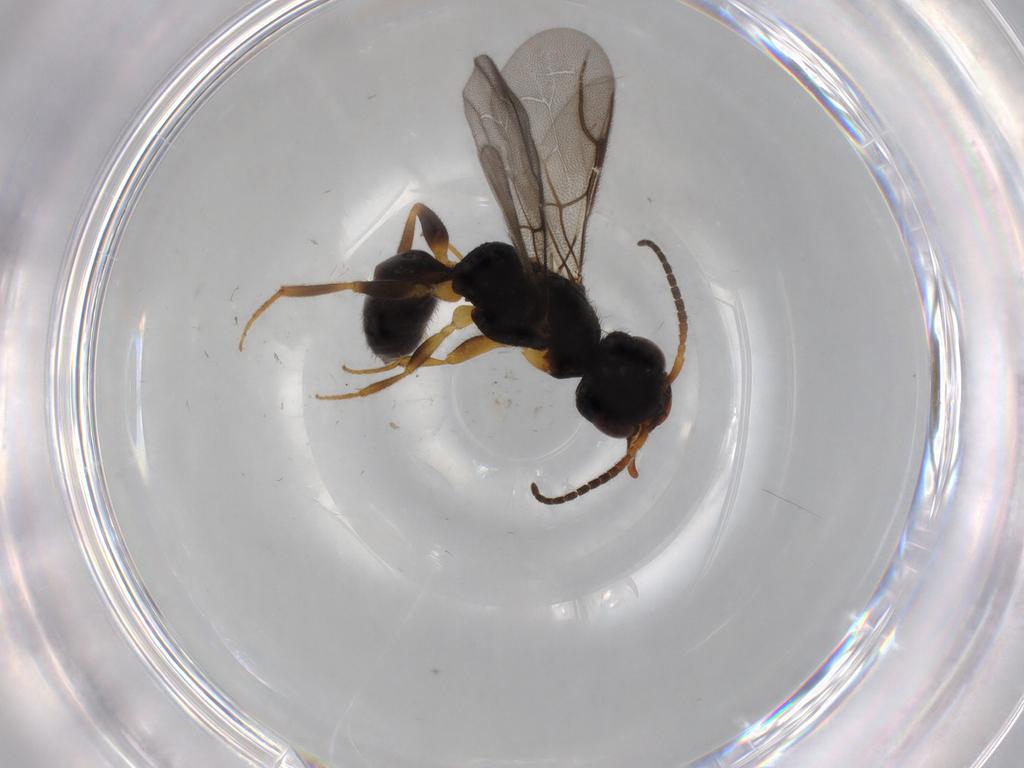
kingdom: Animalia
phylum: Arthropoda
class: Insecta
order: Hymenoptera
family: Bethylidae
